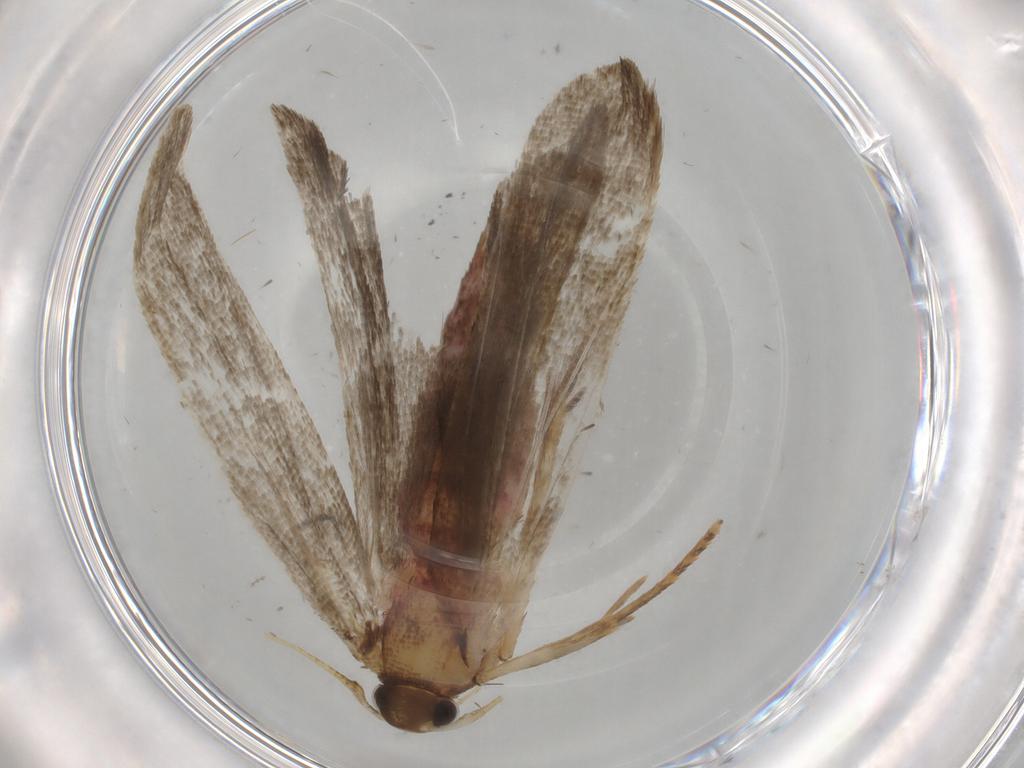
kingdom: Animalia
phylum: Arthropoda
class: Insecta
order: Lepidoptera
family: Autostichidae
